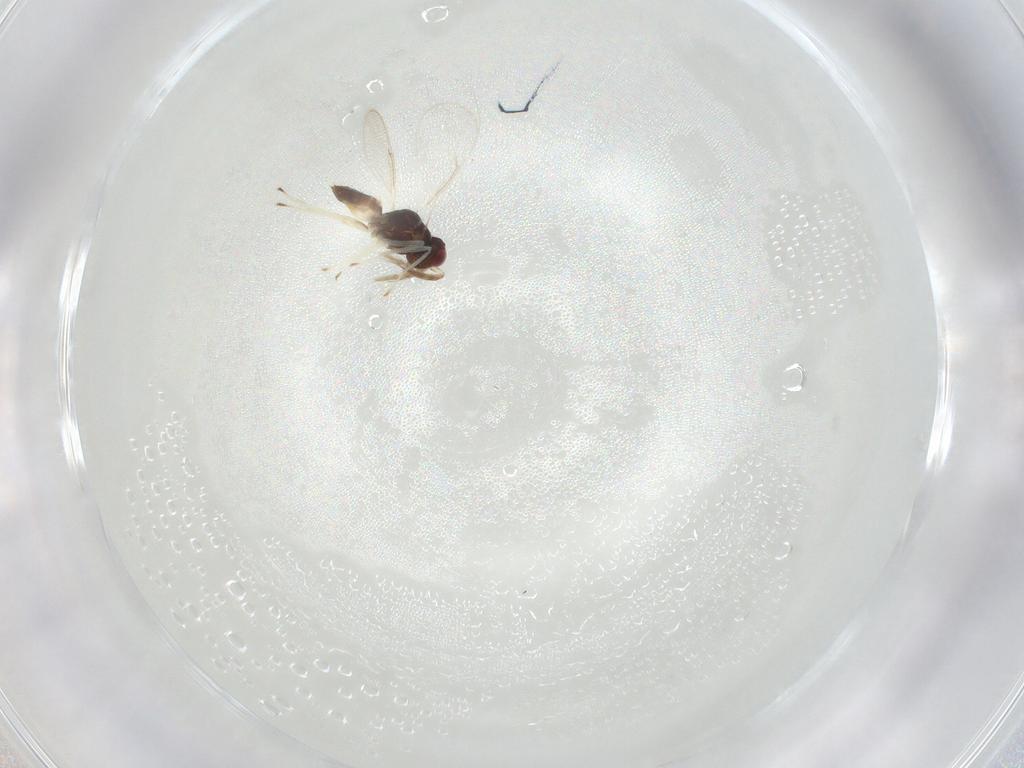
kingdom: Animalia
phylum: Arthropoda
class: Insecta
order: Hymenoptera
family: Eulophidae
